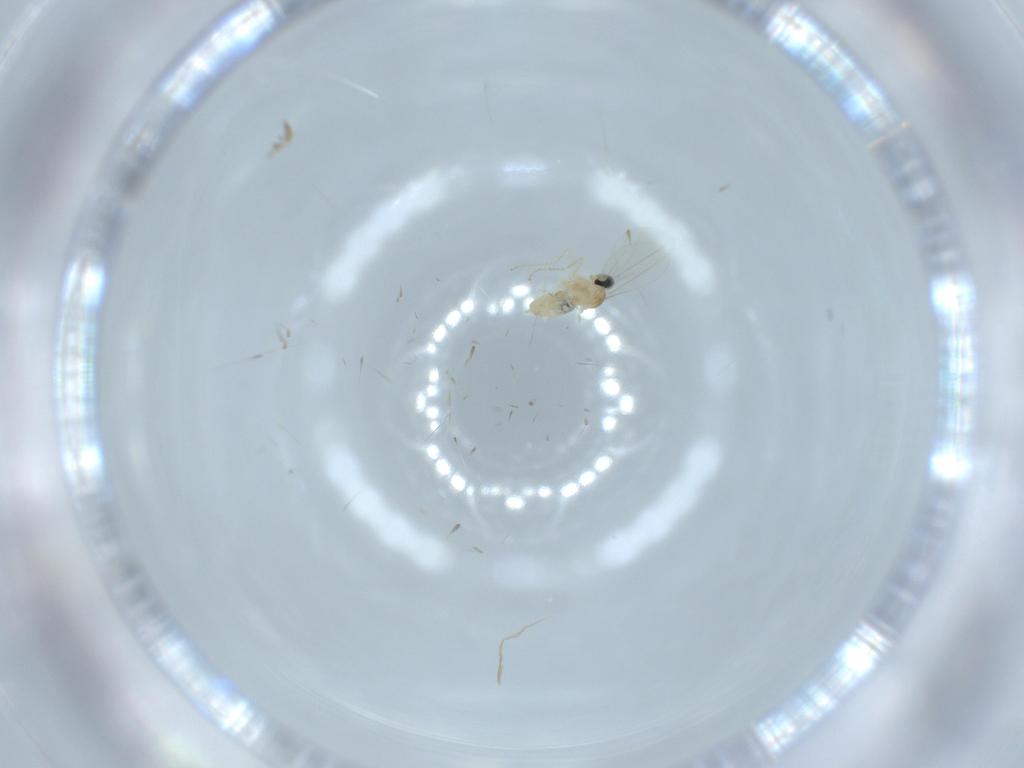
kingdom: Animalia
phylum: Arthropoda
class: Insecta
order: Diptera
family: Cecidomyiidae
